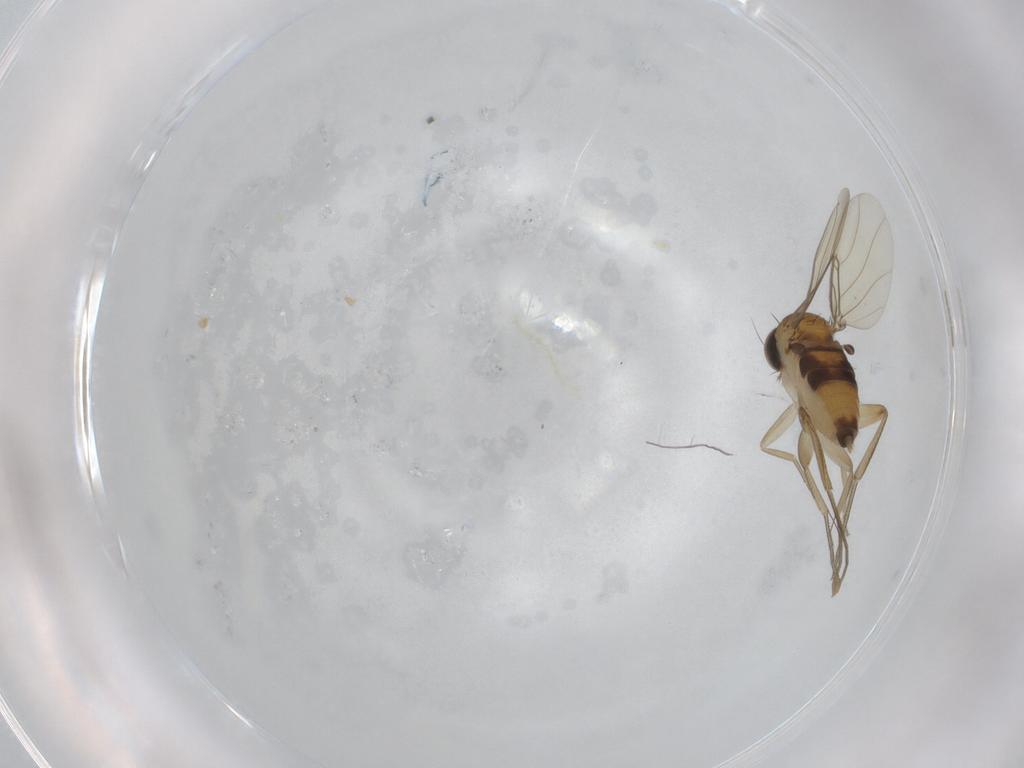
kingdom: Animalia
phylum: Arthropoda
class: Insecta
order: Diptera
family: Phoridae
